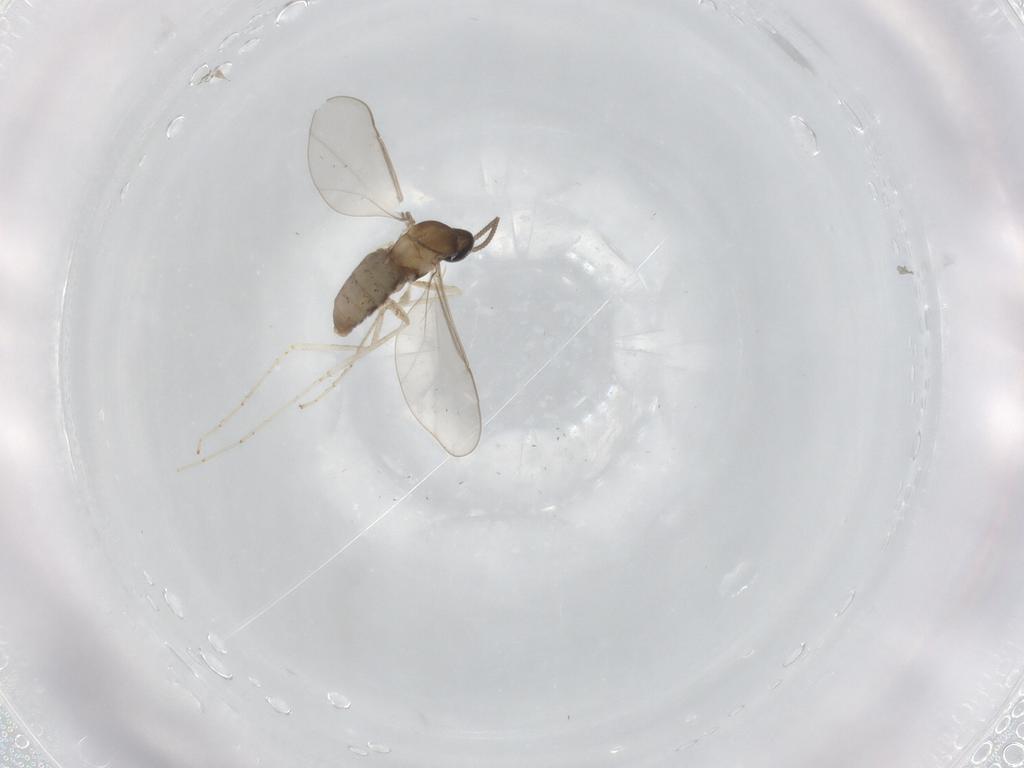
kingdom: Animalia
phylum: Arthropoda
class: Insecta
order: Diptera
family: Cecidomyiidae
